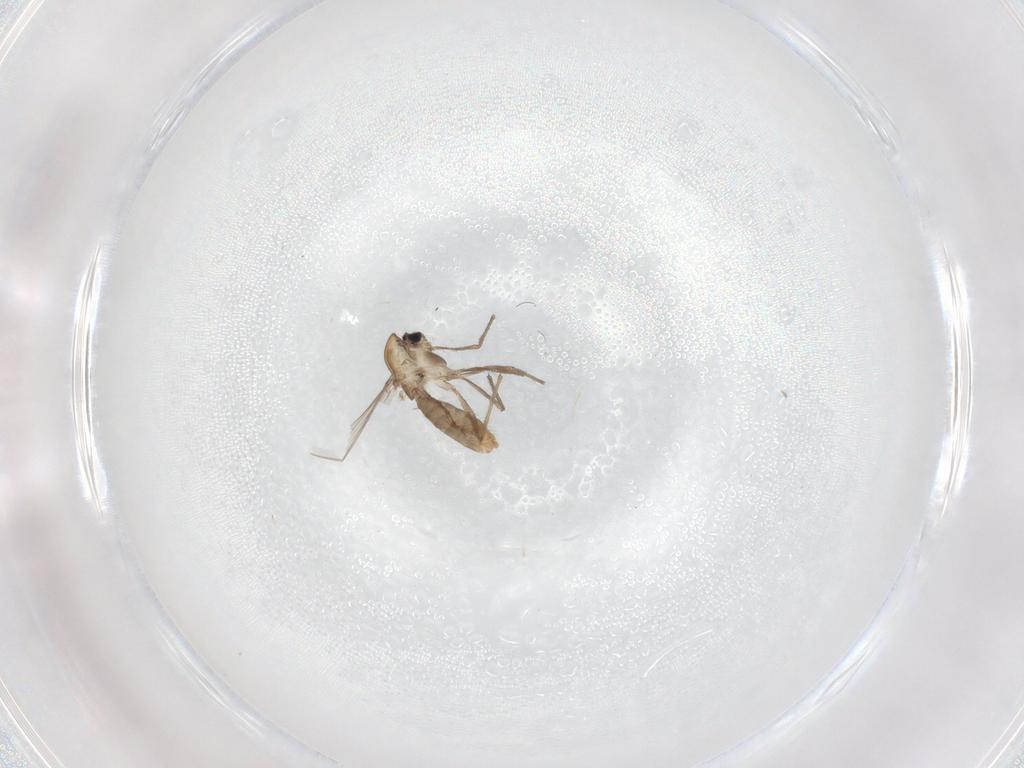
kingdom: Animalia
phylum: Arthropoda
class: Insecta
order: Diptera
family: Chironomidae
